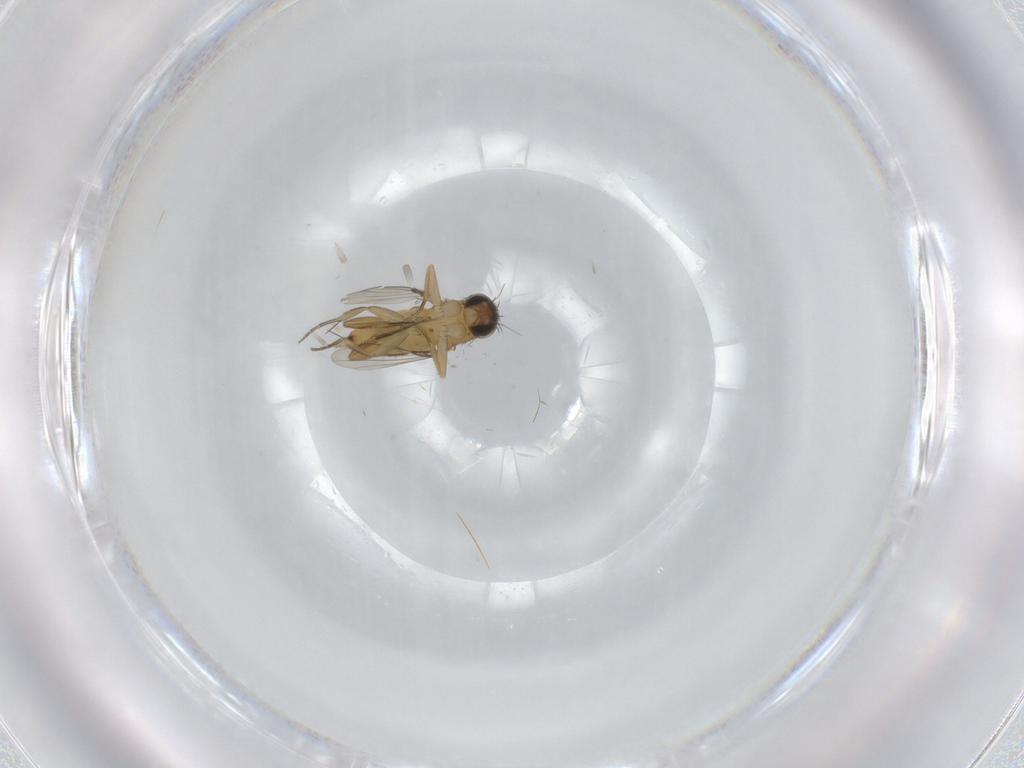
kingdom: Animalia
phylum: Arthropoda
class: Insecta
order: Diptera
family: Phoridae
